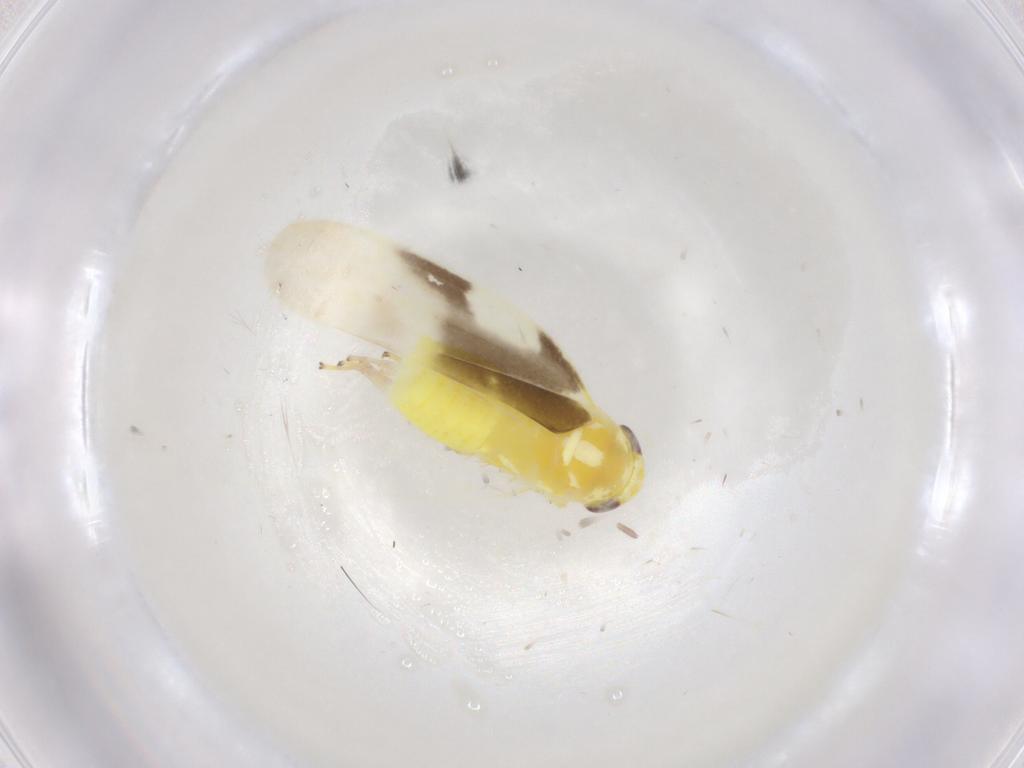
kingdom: Animalia
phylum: Arthropoda
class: Insecta
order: Hemiptera
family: Cicadellidae
